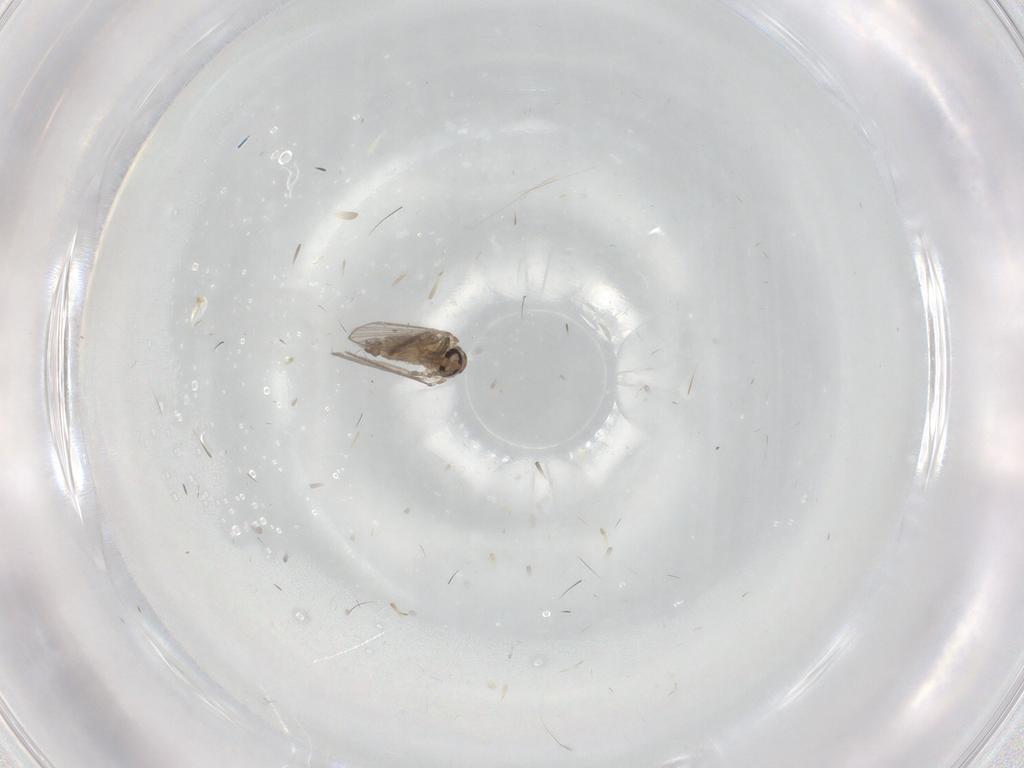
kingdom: Animalia
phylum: Arthropoda
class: Insecta
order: Diptera
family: Psychodidae
